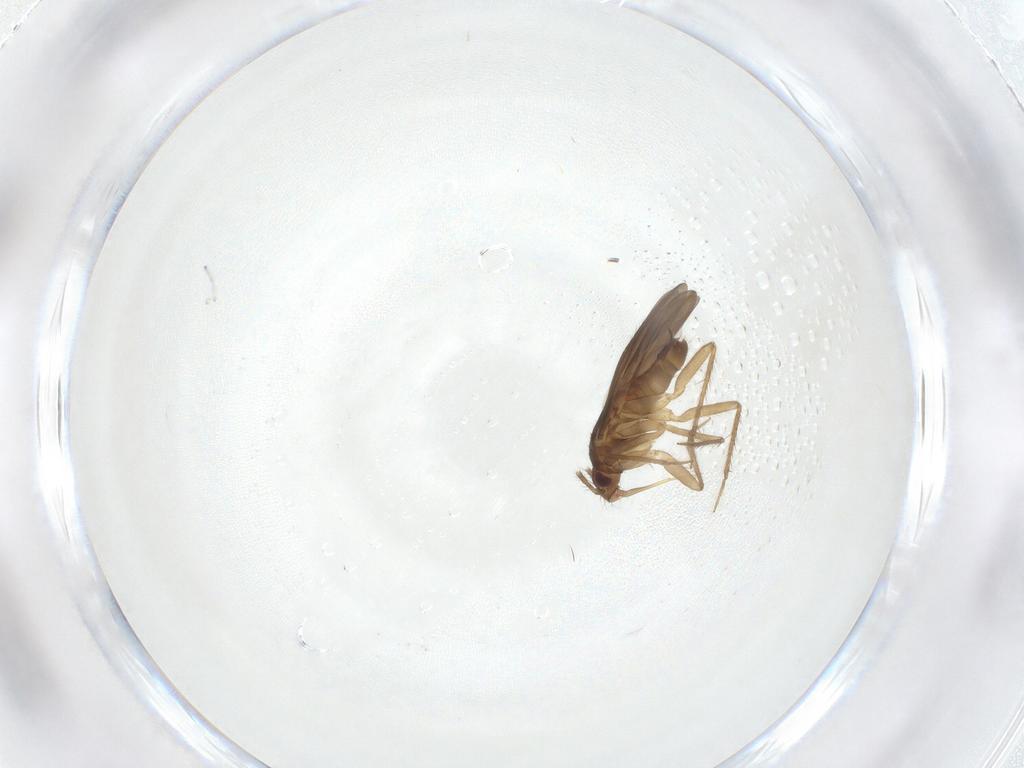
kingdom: Animalia
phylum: Arthropoda
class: Insecta
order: Hemiptera
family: Ceratocombidae
